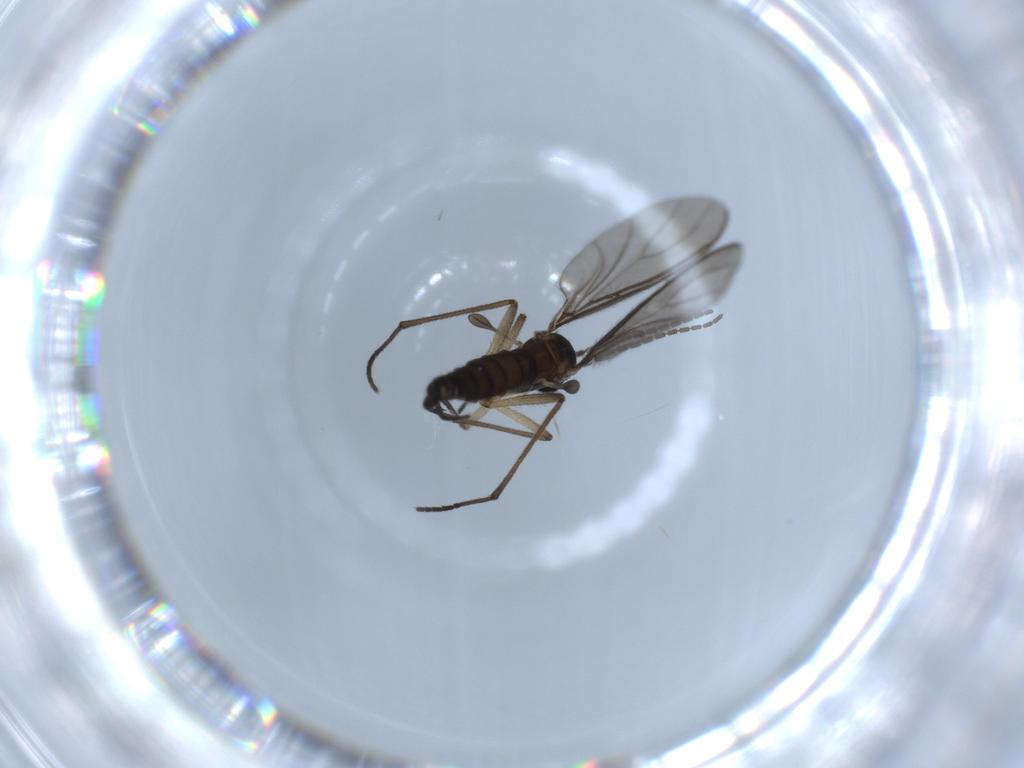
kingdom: Animalia
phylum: Arthropoda
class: Insecta
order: Diptera
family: Sciaridae
